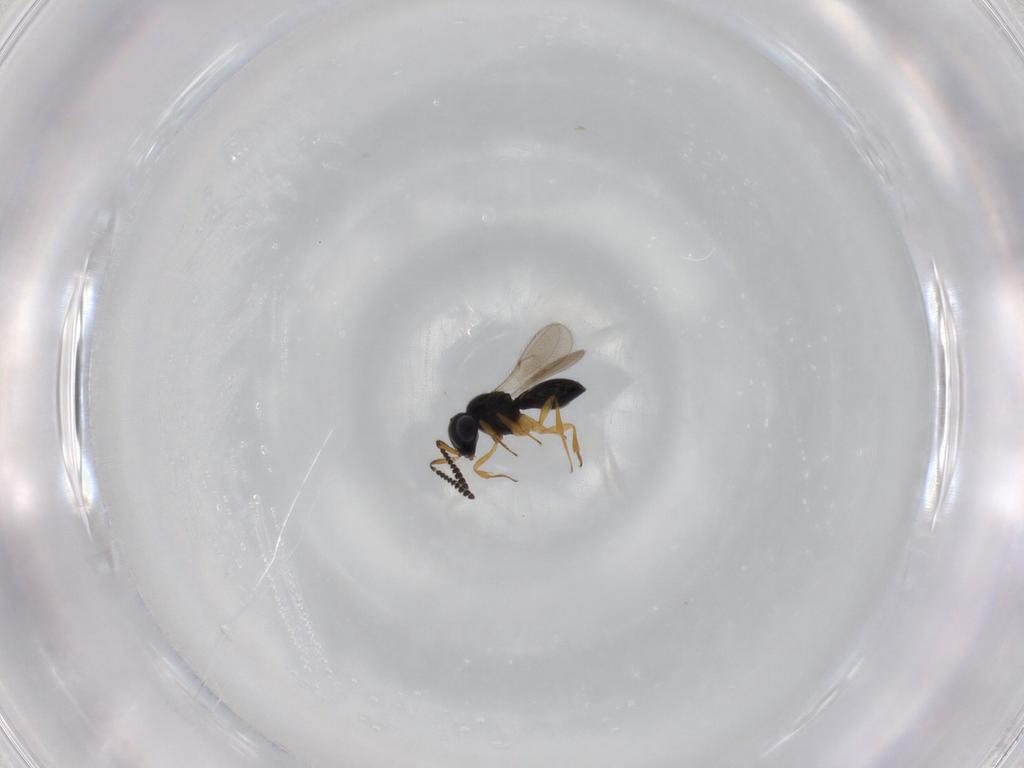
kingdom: Animalia
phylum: Arthropoda
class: Insecta
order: Hymenoptera
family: Scelionidae
